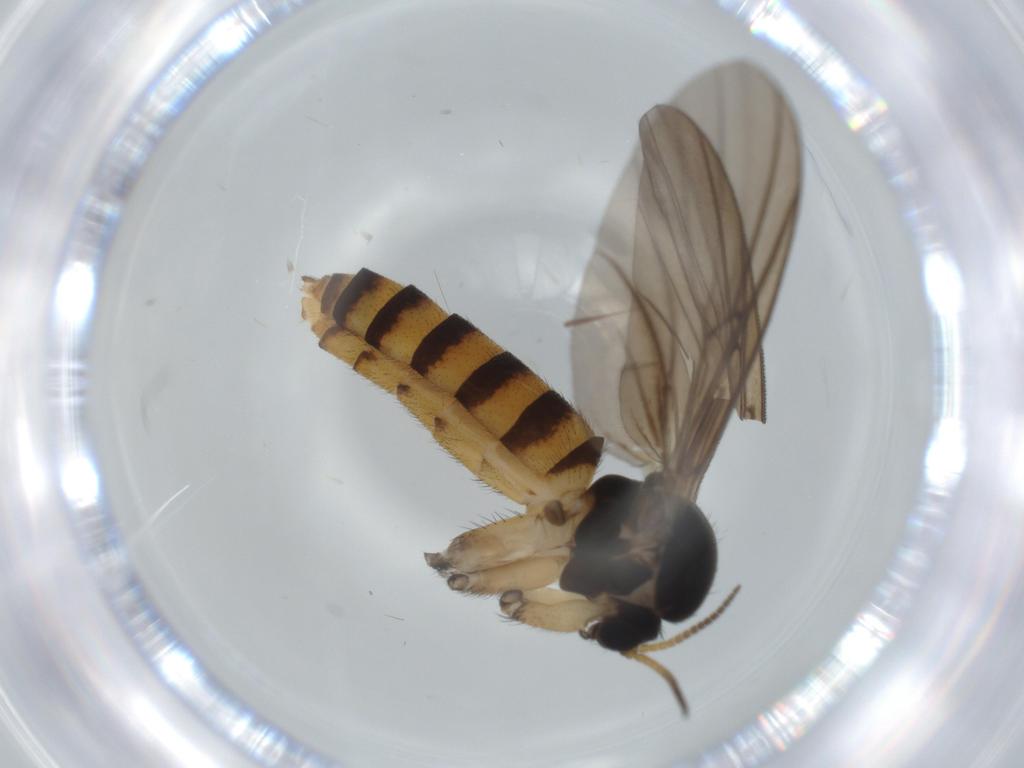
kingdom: Animalia
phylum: Arthropoda
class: Insecta
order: Diptera
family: Mycetophilidae
